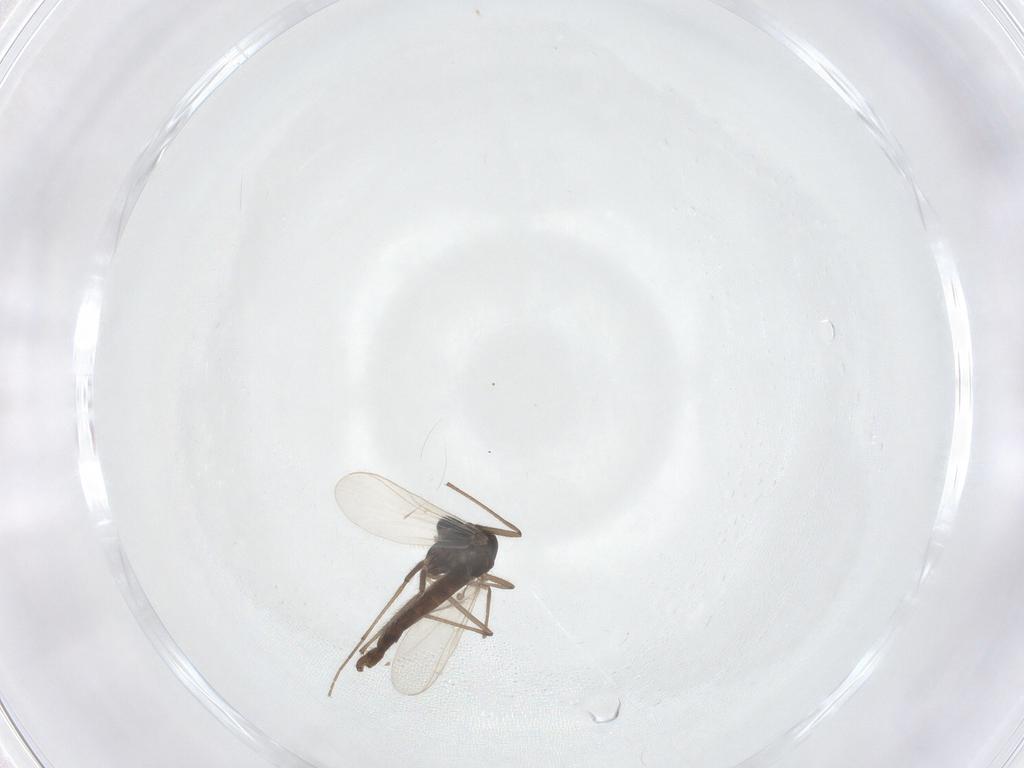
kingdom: Animalia
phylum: Arthropoda
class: Insecta
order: Diptera
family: Chironomidae
